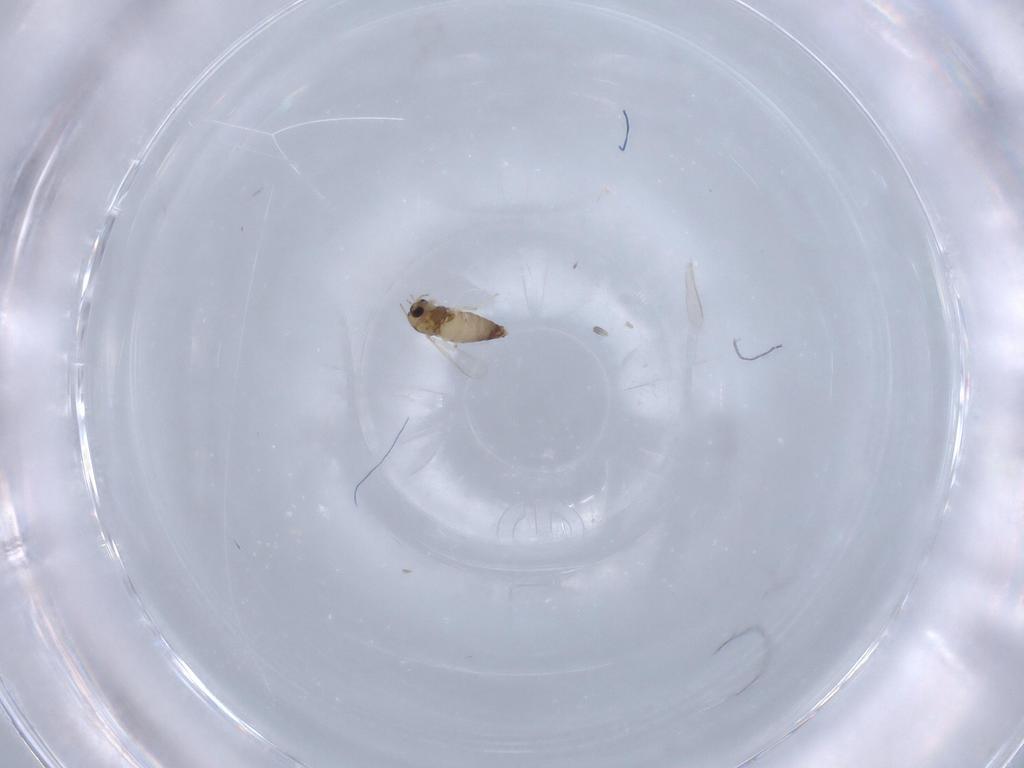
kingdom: Animalia
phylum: Arthropoda
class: Insecta
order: Diptera
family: Chironomidae
